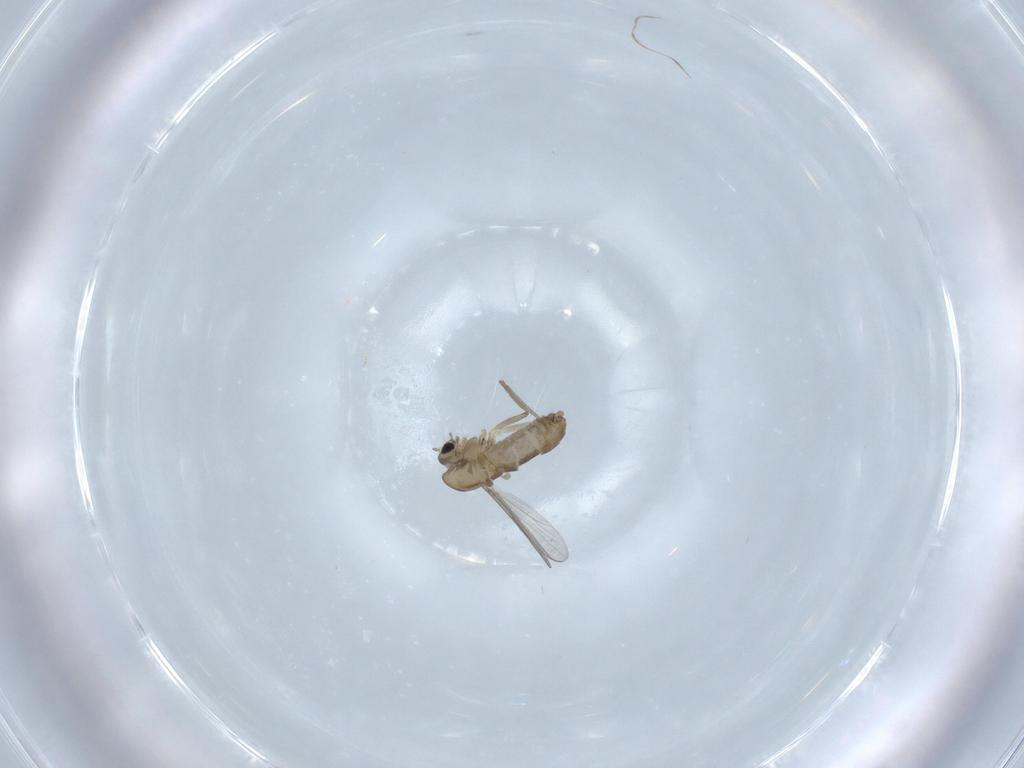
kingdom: Animalia
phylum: Arthropoda
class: Insecta
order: Diptera
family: Chironomidae
